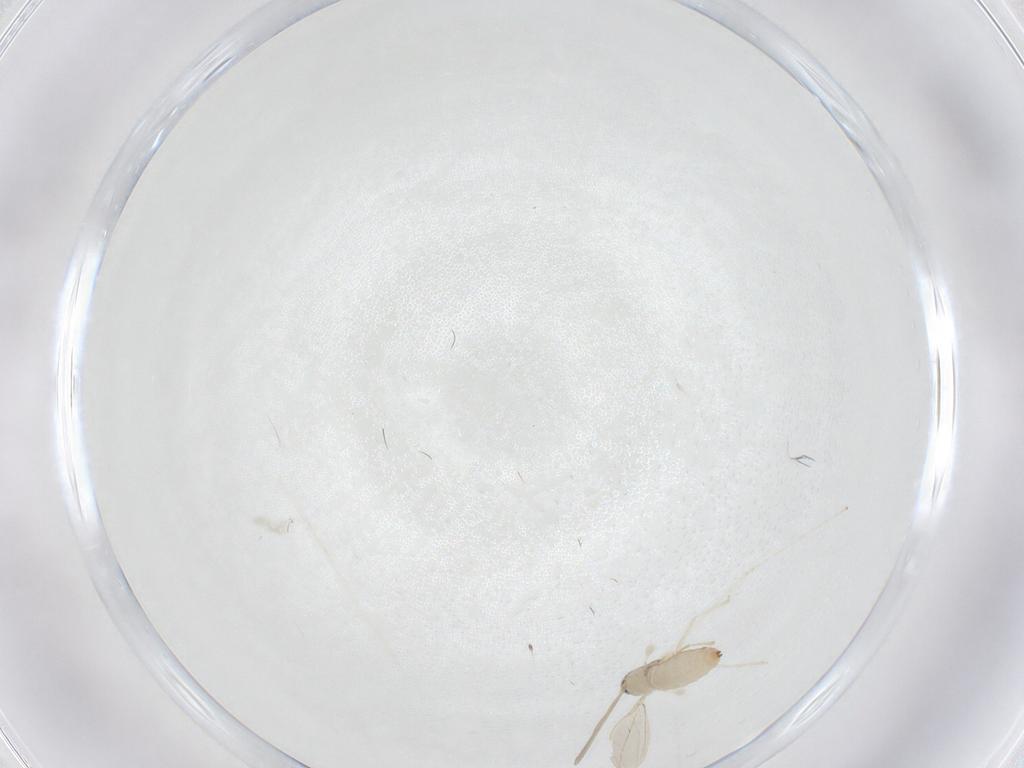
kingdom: Animalia
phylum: Arthropoda
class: Insecta
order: Diptera
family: Cecidomyiidae
